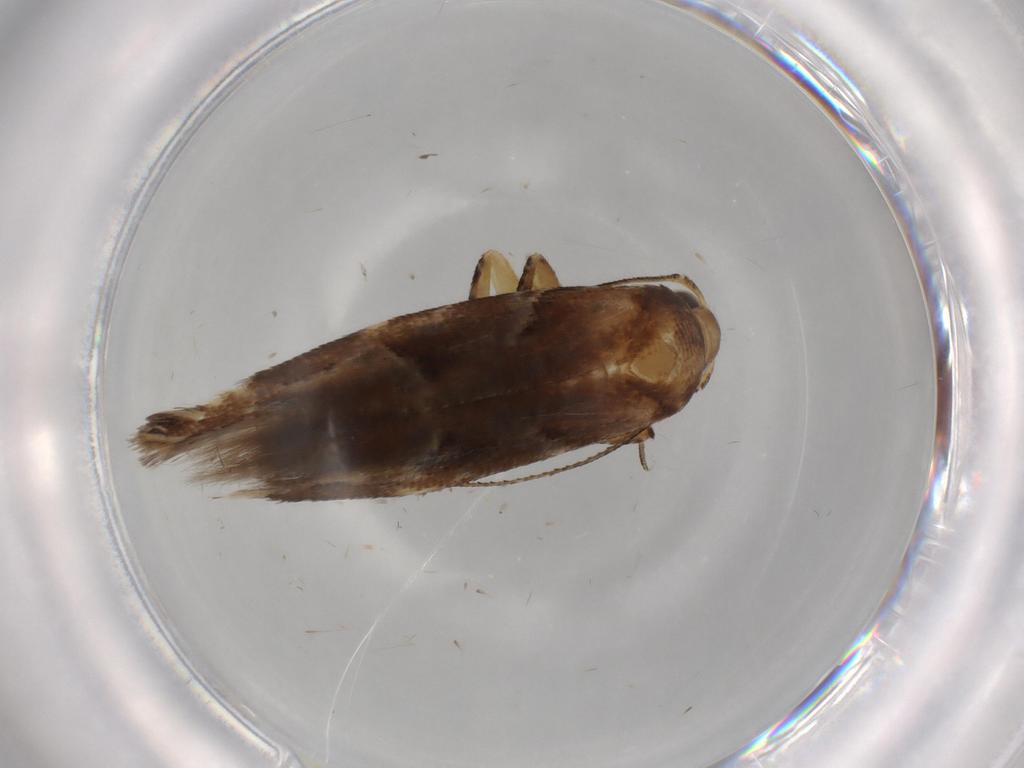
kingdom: Animalia
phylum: Arthropoda
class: Insecta
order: Lepidoptera
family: Gelechiidae
